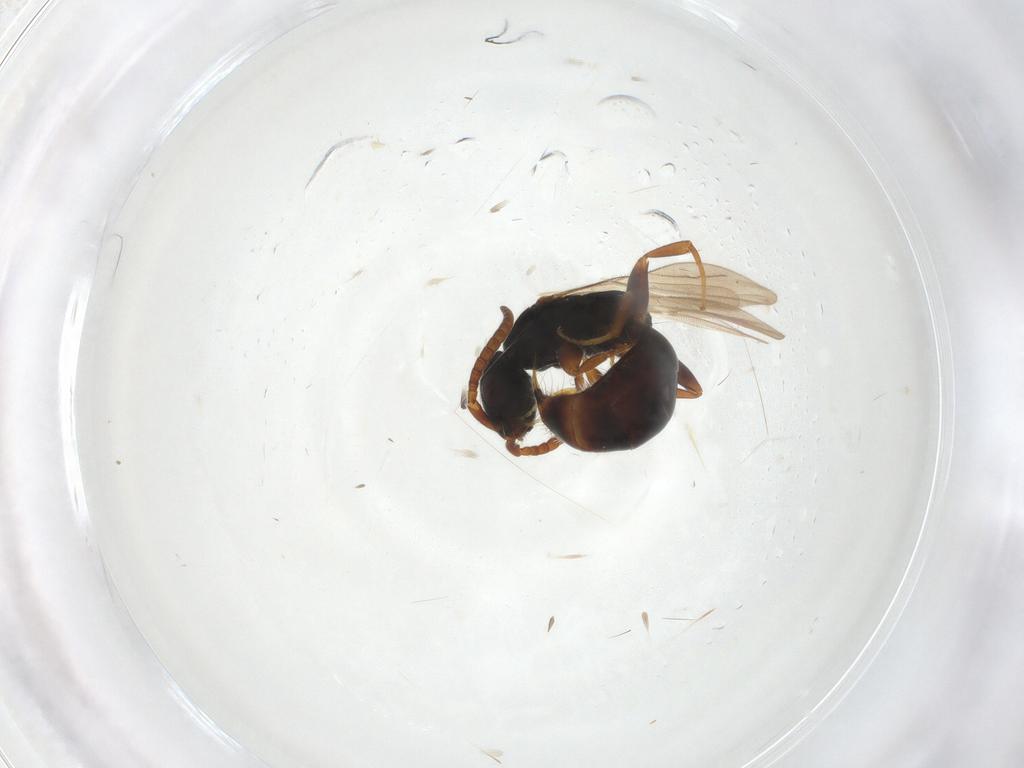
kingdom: Animalia
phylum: Arthropoda
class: Insecta
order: Hymenoptera
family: Bethylidae
